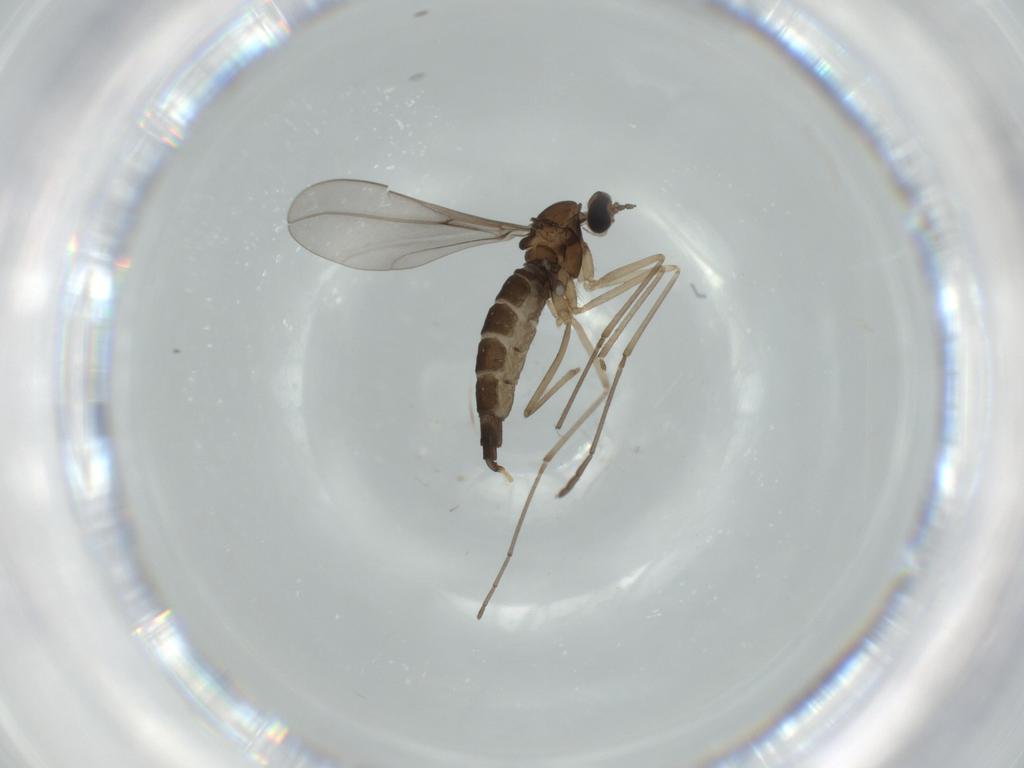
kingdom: Animalia
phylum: Arthropoda
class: Insecta
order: Diptera
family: Cecidomyiidae
